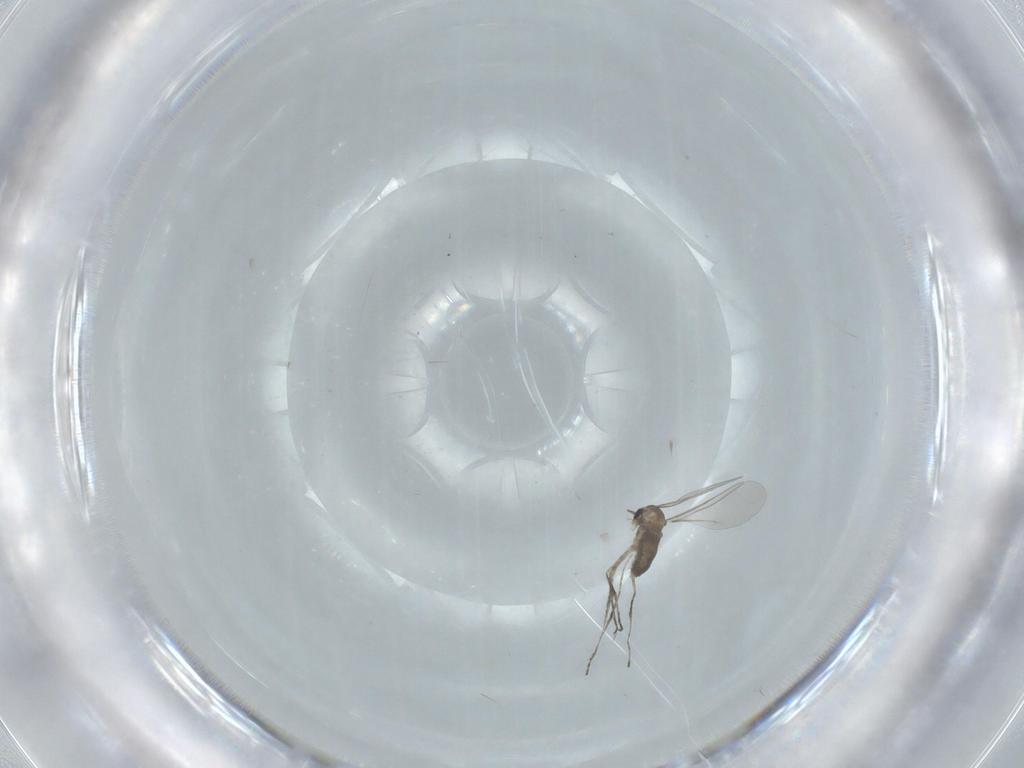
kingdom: Animalia
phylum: Arthropoda
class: Insecta
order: Diptera
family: Cecidomyiidae
